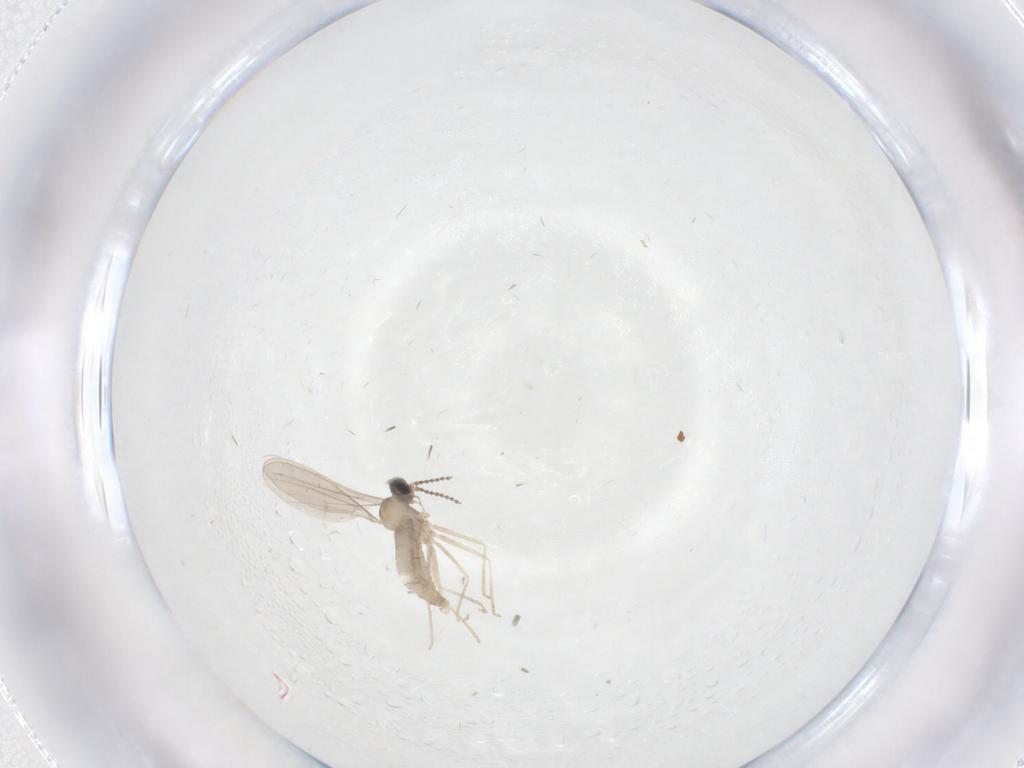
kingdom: Animalia
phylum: Arthropoda
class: Insecta
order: Diptera
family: Cecidomyiidae
